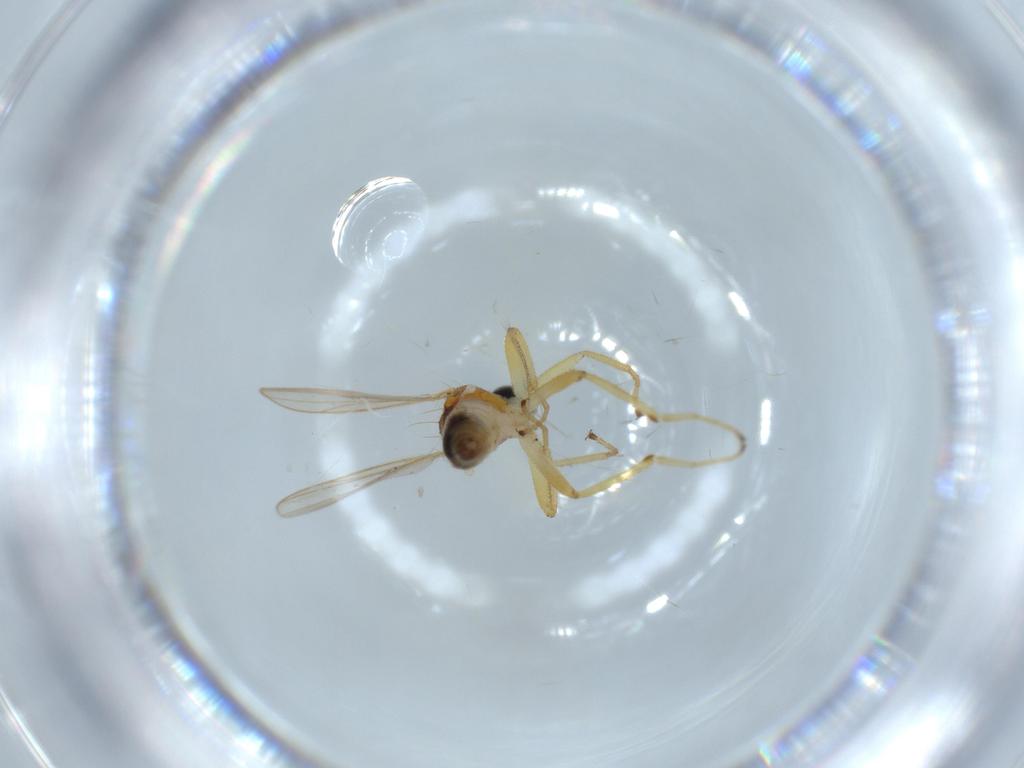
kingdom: Animalia
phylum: Arthropoda
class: Insecta
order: Diptera
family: Hybotidae
